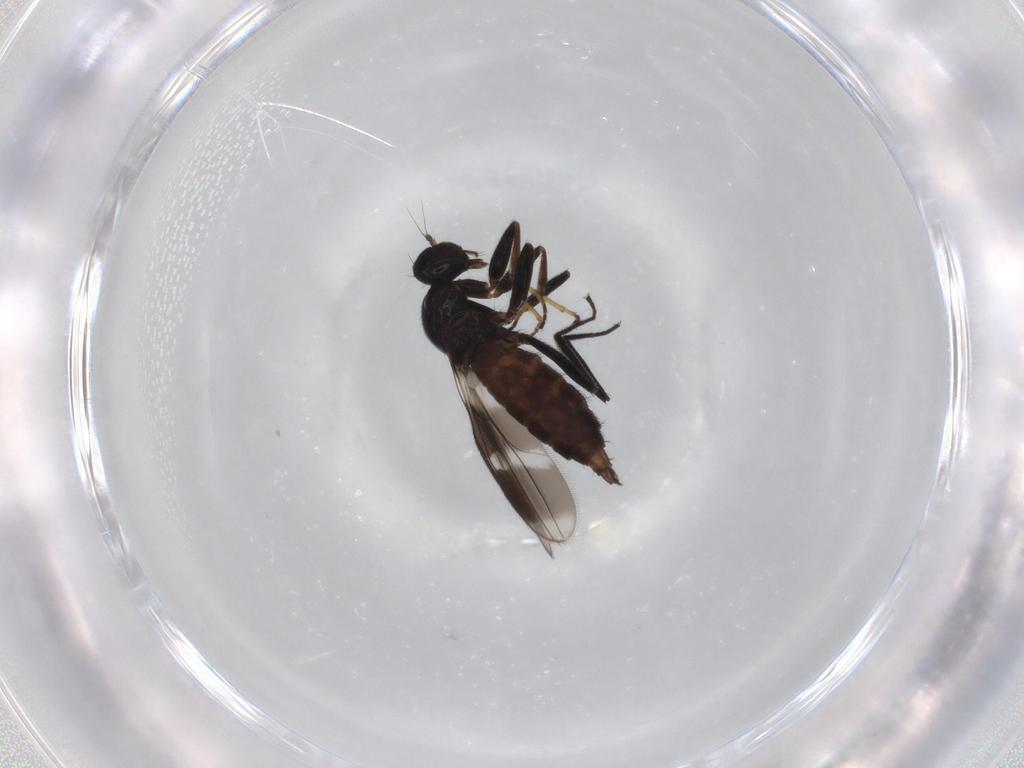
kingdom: Animalia
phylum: Arthropoda
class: Insecta
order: Diptera
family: Hybotidae
